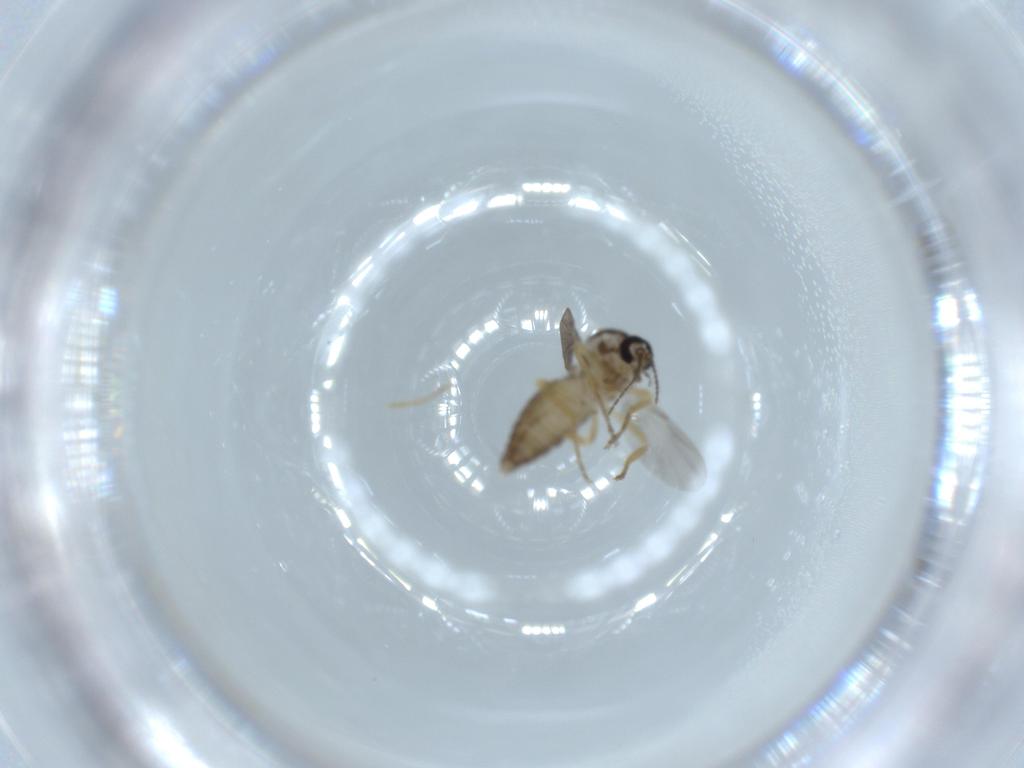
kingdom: Animalia
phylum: Arthropoda
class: Insecta
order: Diptera
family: Ceratopogonidae
